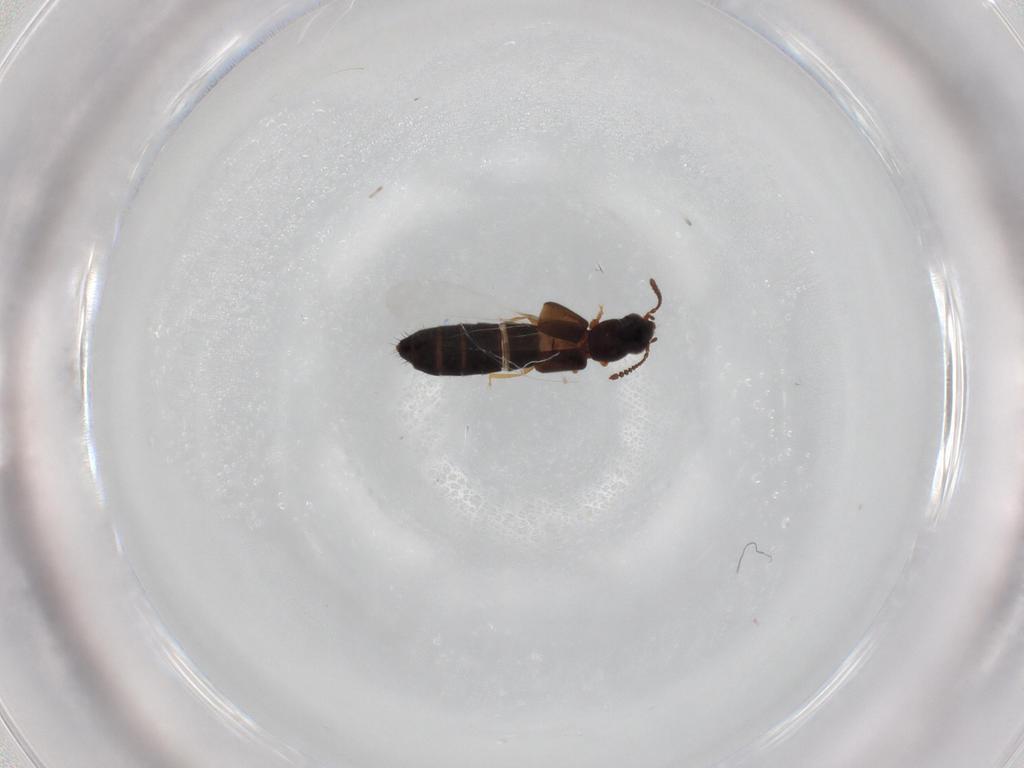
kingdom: Animalia
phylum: Arthropoda
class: Insecta
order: Coleoptera
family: Staphylinidae
